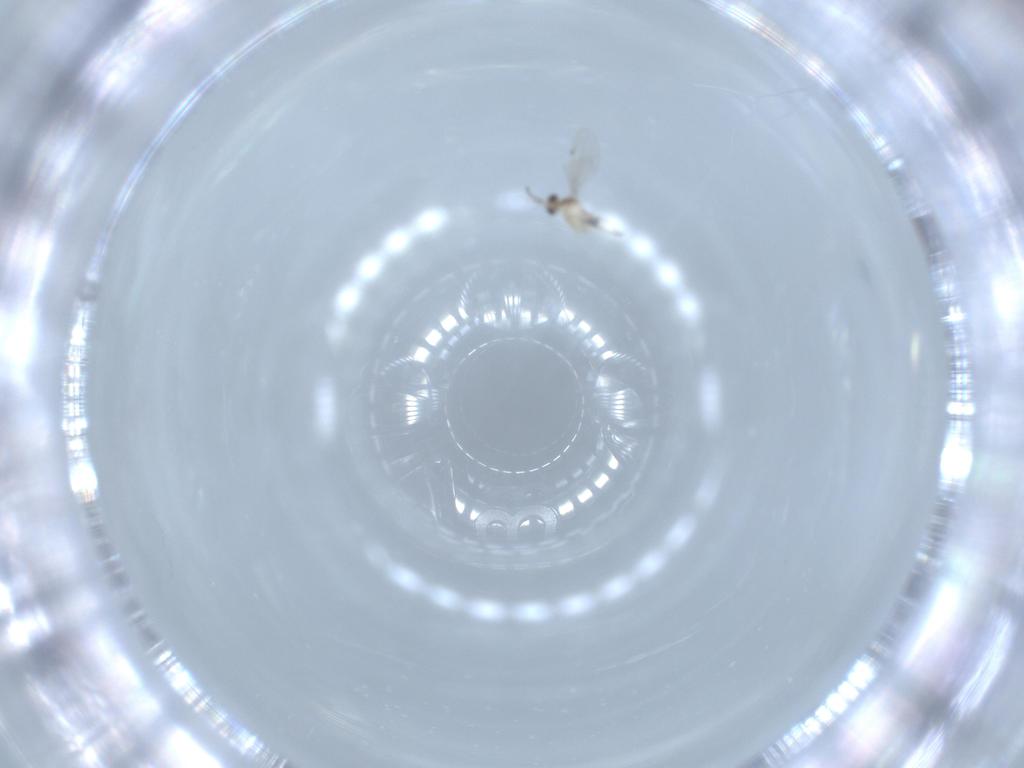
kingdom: Animalia
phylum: Arthropoda
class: Insecta
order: Diptera
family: Cecidomyiidae
